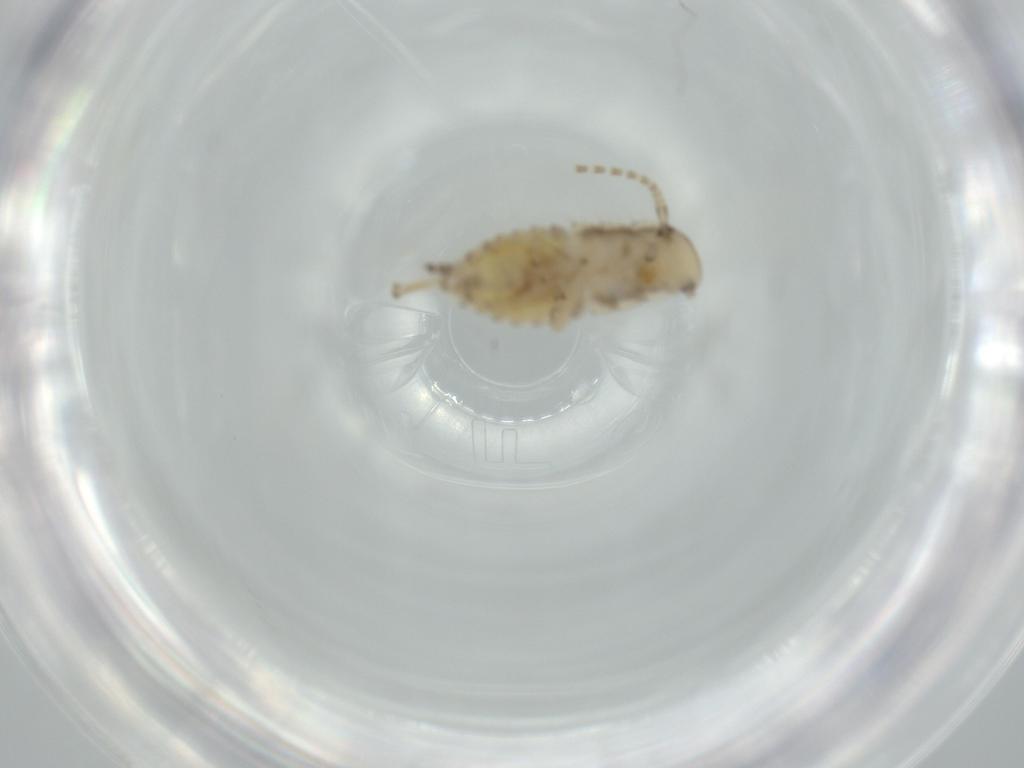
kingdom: Animalia
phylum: Arthropoda
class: Insecta
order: Blattodea
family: Ectobiidae
